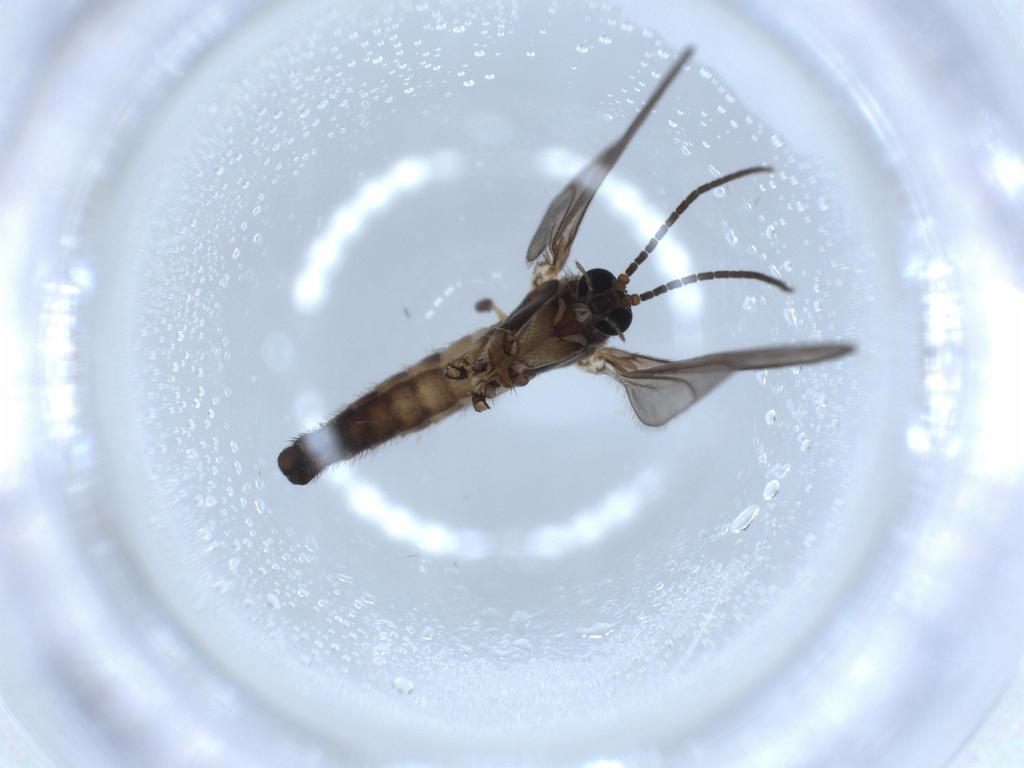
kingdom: Animalia
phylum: Arthropoda
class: Insecta
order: Diptera
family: Sciaridae
